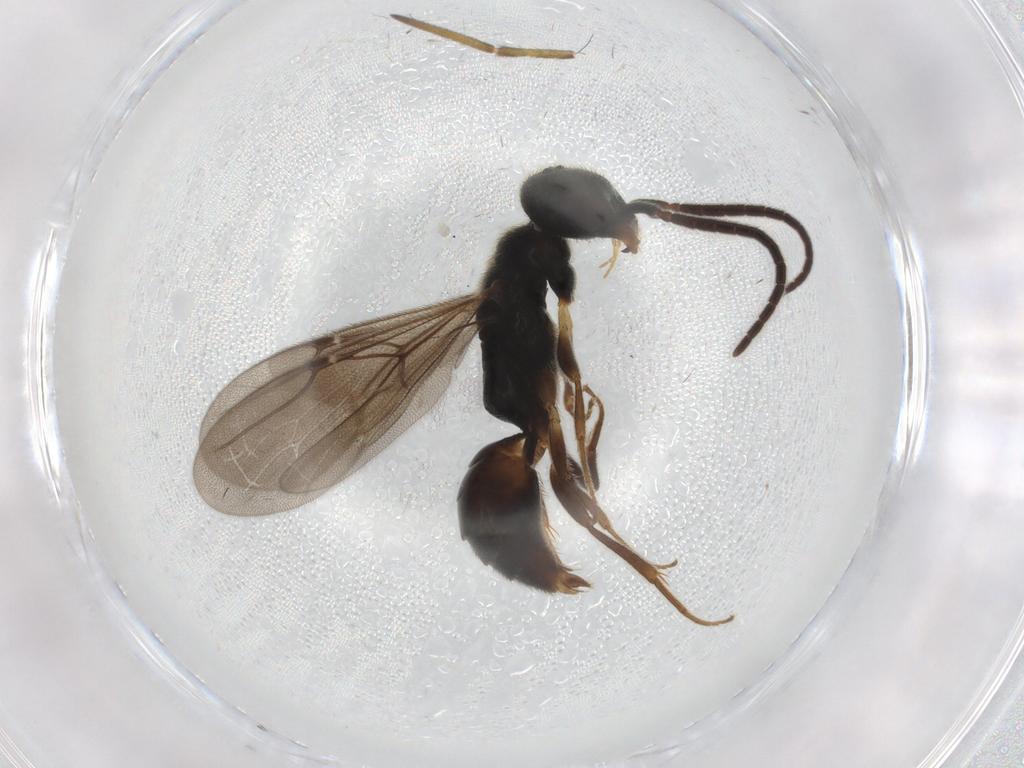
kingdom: Animalia
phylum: Arthropoda
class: Insecta
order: Hymenoptera
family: Bethylidae
